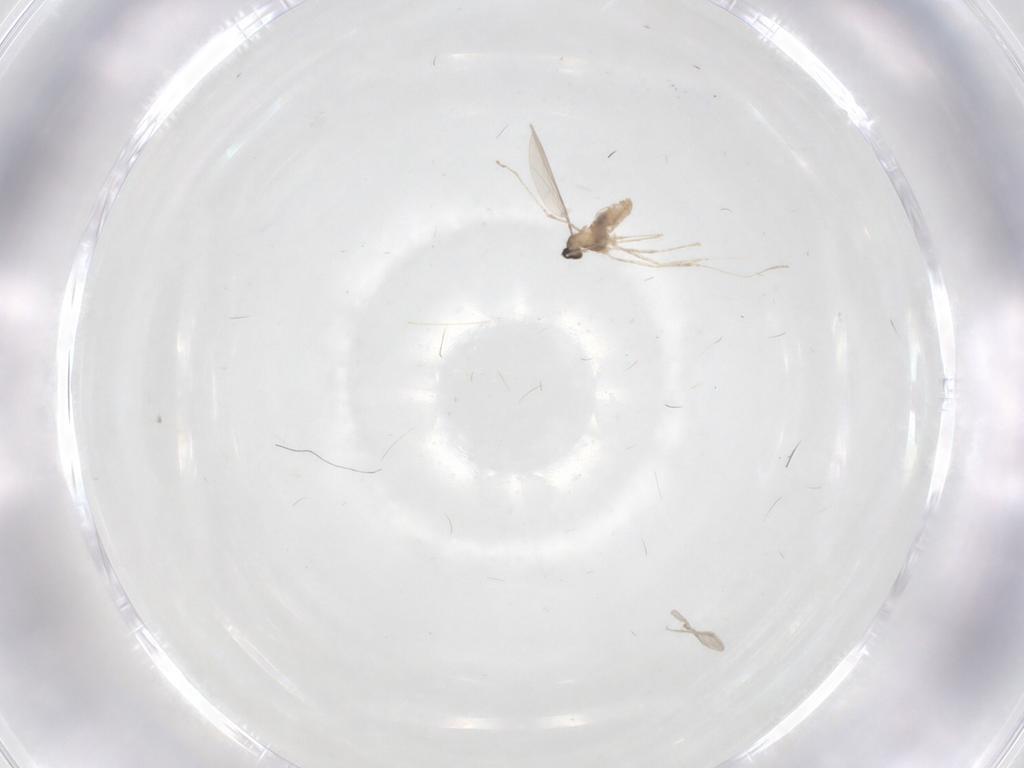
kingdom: Animalia
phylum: Arthropoda
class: Insecta
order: Diptera
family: Cecidomyiidae
